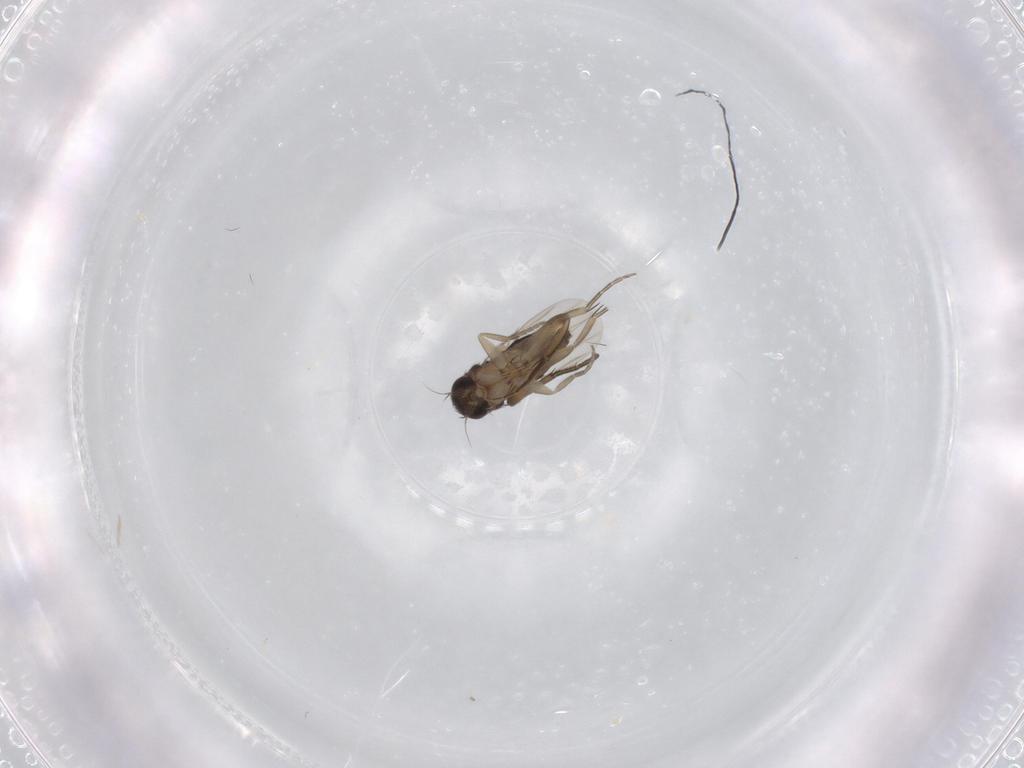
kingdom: Animalia
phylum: Arthropoda
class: Insecta
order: Diptera
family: Phoridae
